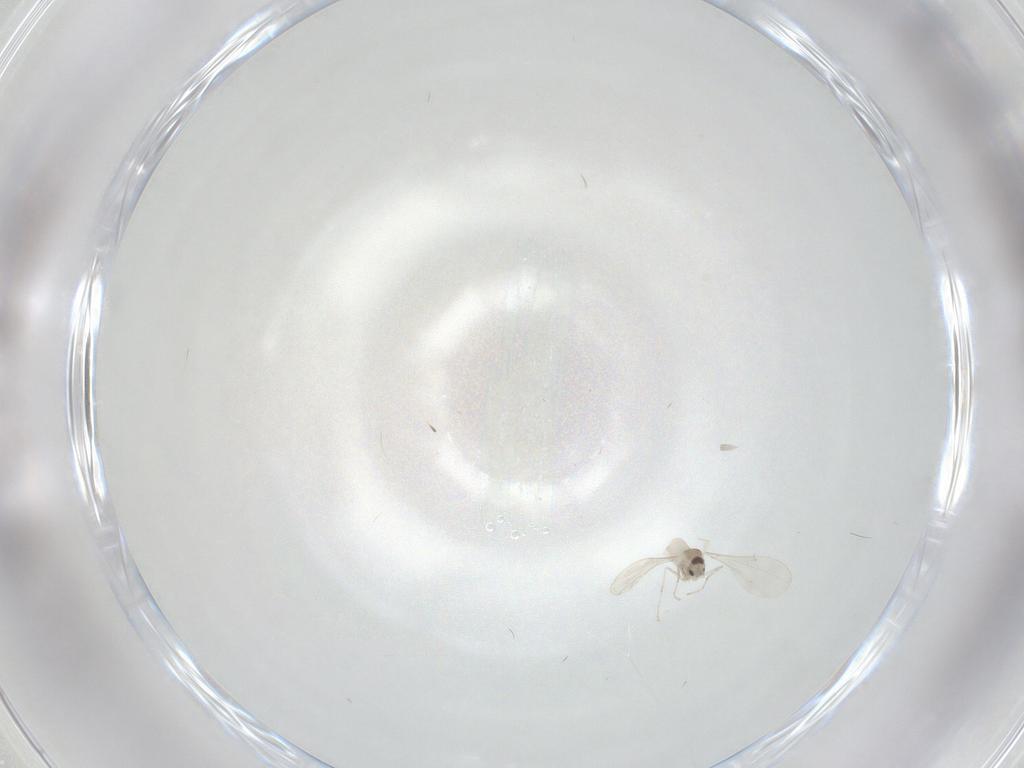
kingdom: Animalia
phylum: Arthropoda
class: Insecta
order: Diptera
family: Cecidomyiidae
